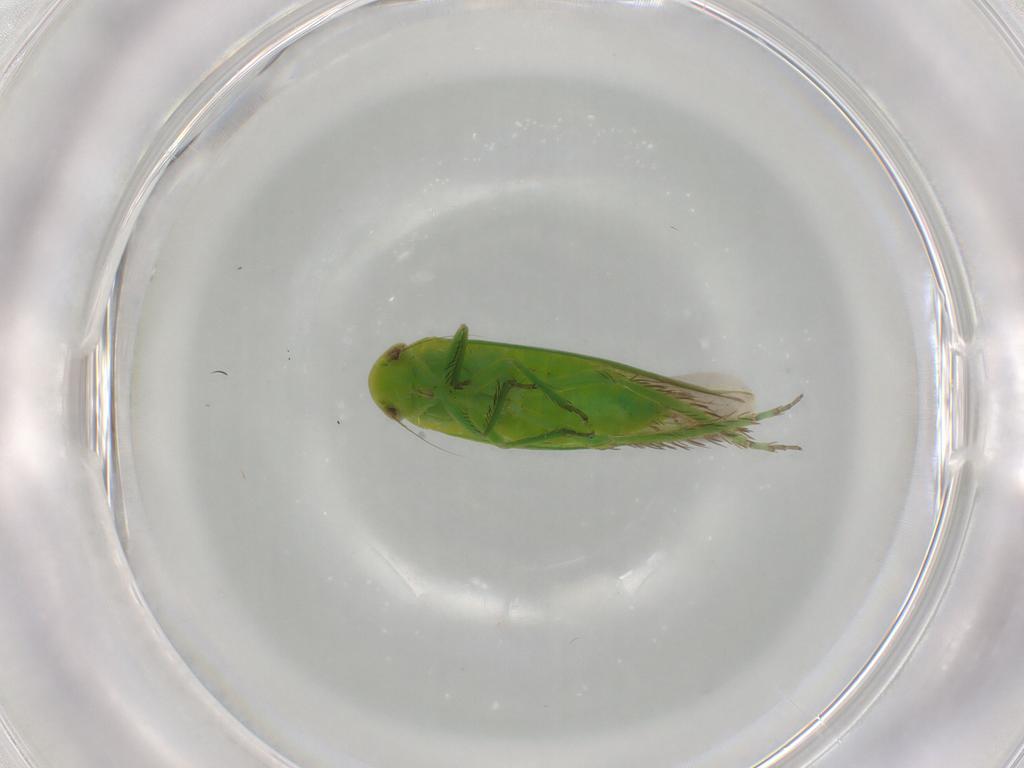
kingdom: Animalia
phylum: Arthropoda
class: Insecta
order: Hemiptera
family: Cicadellidae
